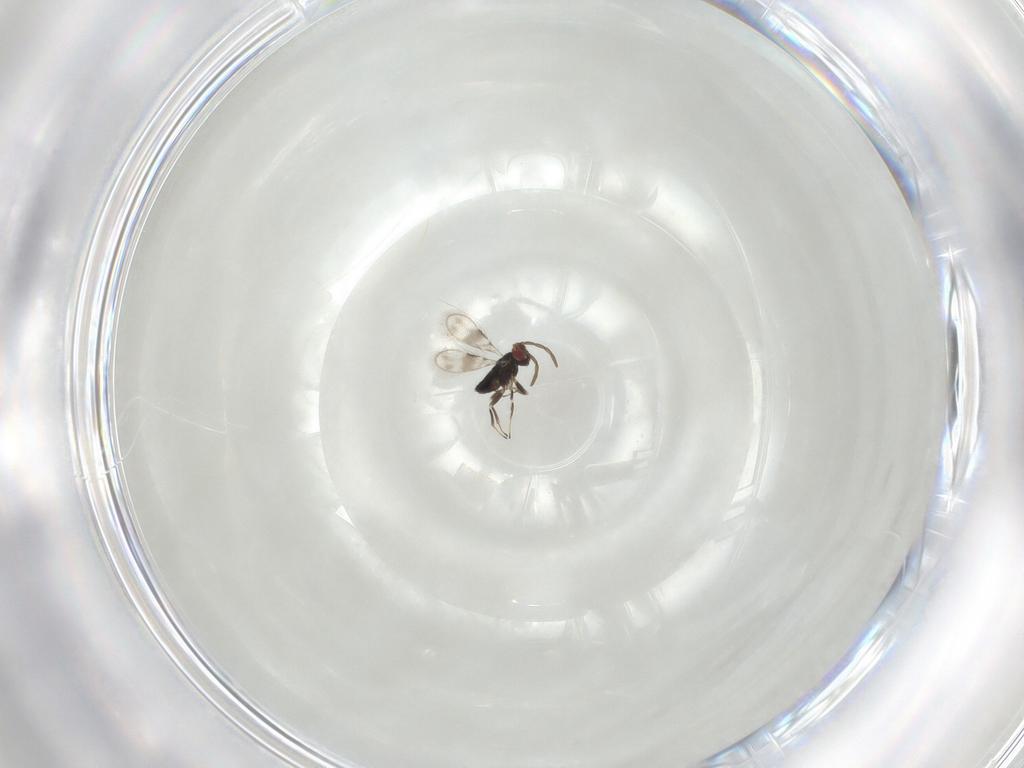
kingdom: Animalia
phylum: Arthropoda
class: Insecta
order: Hymenoptera
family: Azotidae
